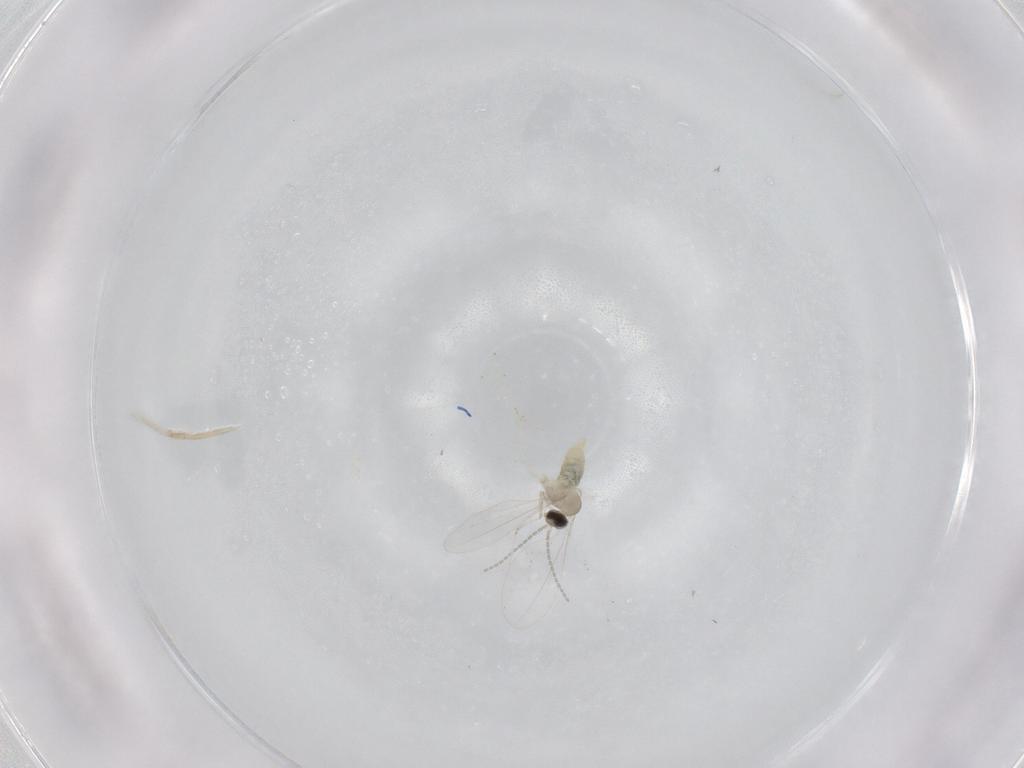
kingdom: Animalia
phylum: Arthropoda
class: Insecta
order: Diptera
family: Cecidomyiidae
